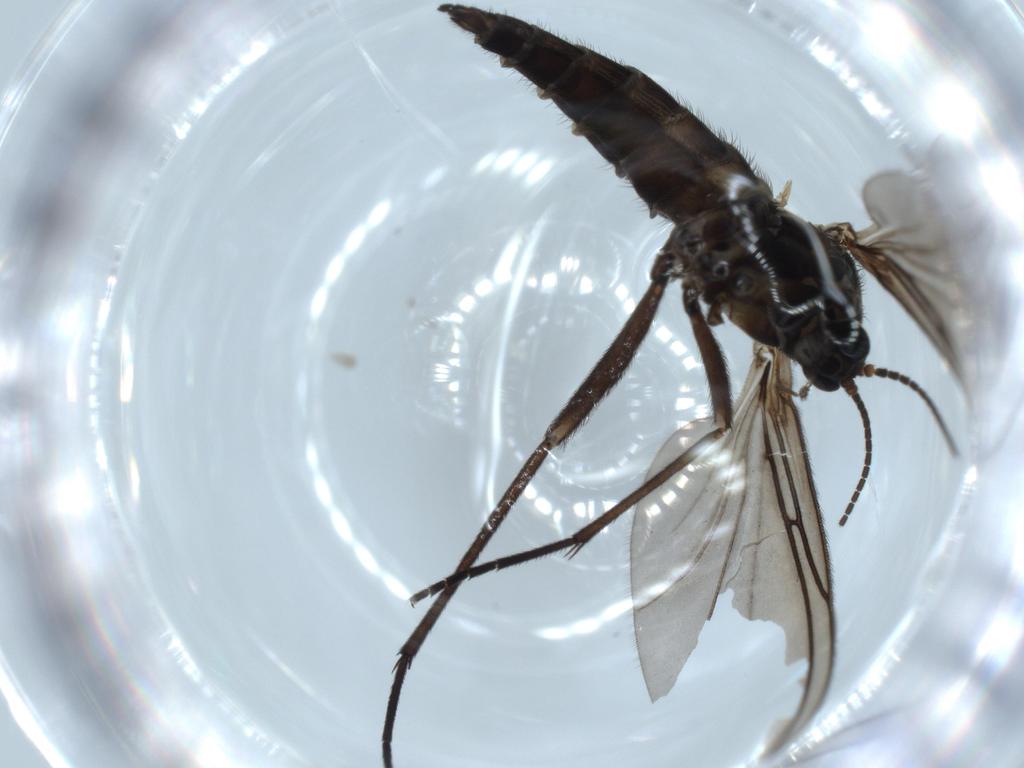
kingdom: Animalia
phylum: Arthropoda
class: Insecta
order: Diptera
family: Sciaridae
